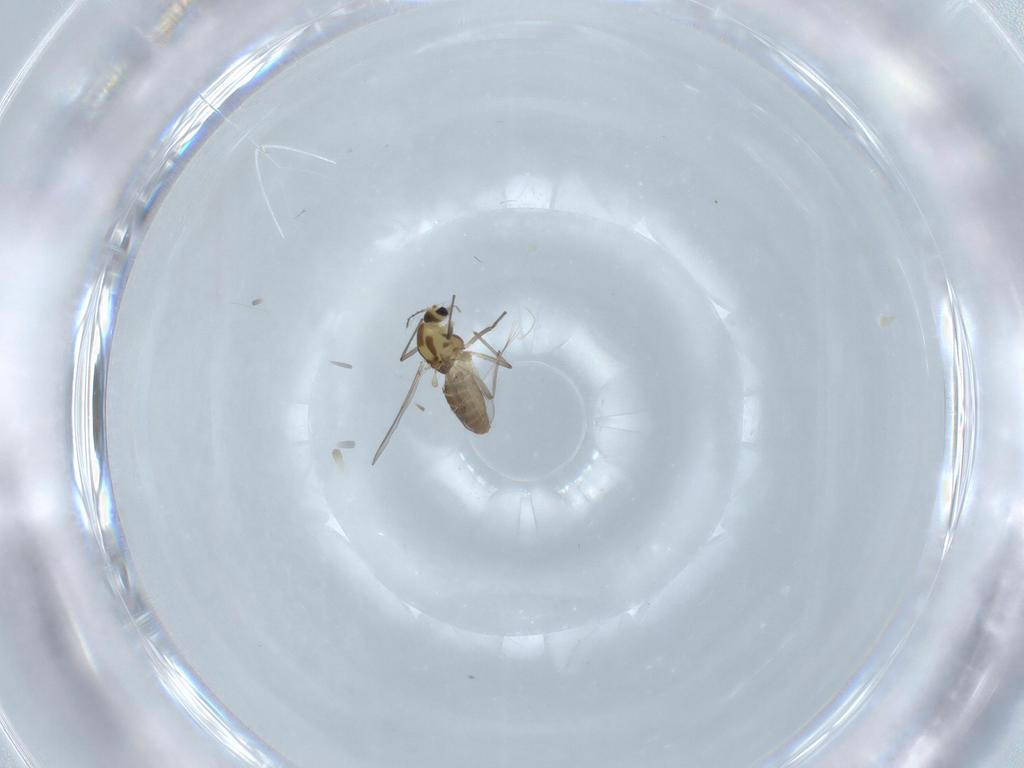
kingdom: Animalia
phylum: Arthropoda
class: Insecta
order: Diptera
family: Chironomidae
